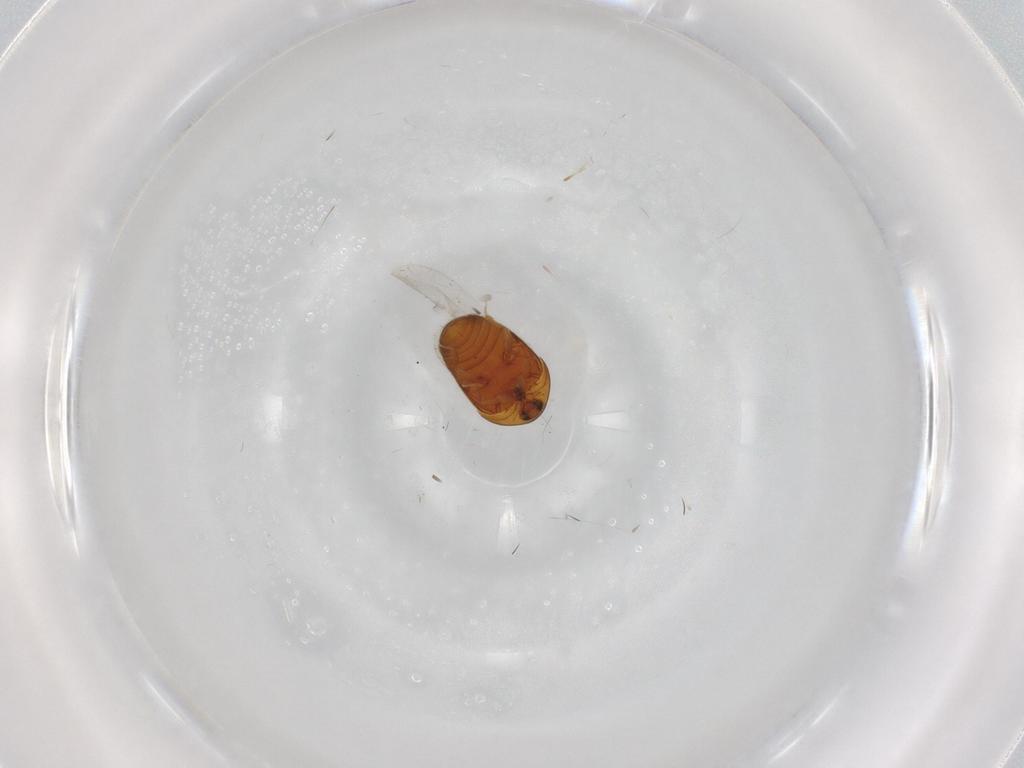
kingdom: Animalia
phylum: Arthropoda
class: Insecta
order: Coleoptera
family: Corylophidae
